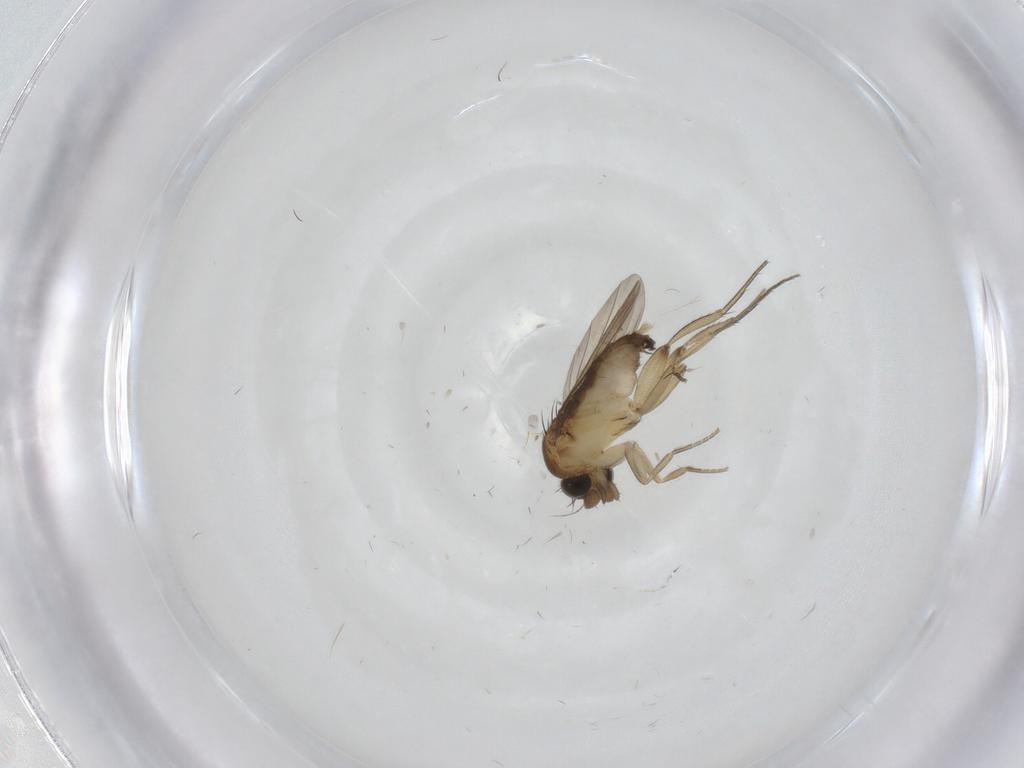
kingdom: Animalia
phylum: Arthropoda
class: Insecta
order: Diptera
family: Phoridae
